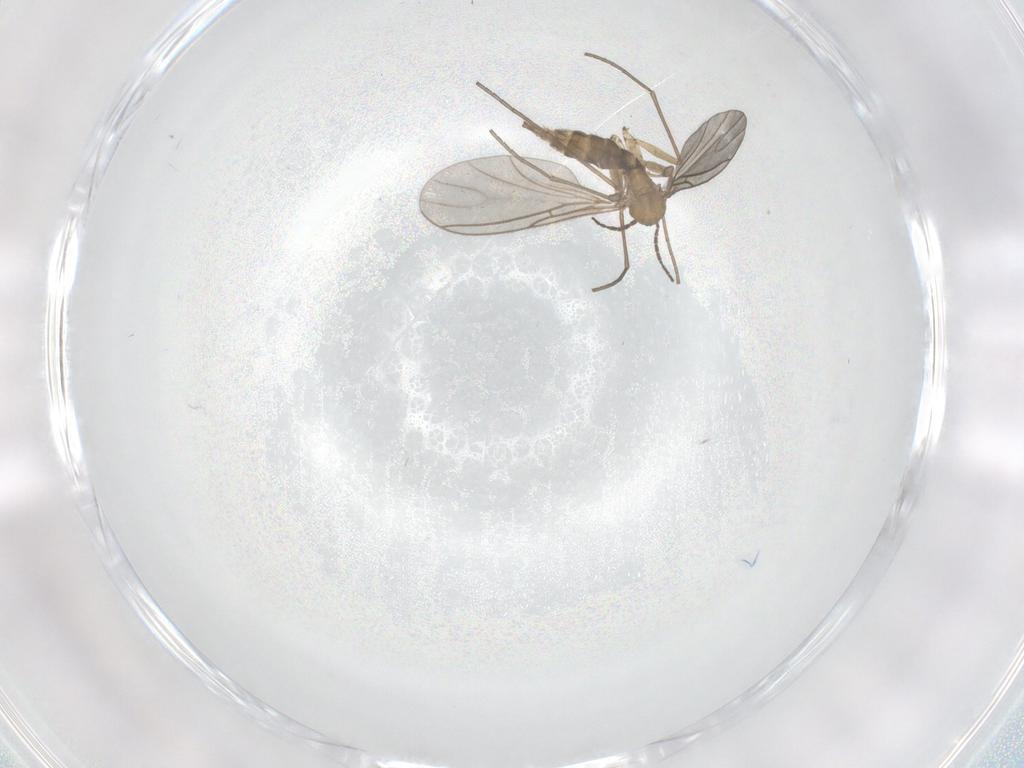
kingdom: Animalia
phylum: Arthropoda
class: Insecta
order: Diptera
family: Sciaridae
